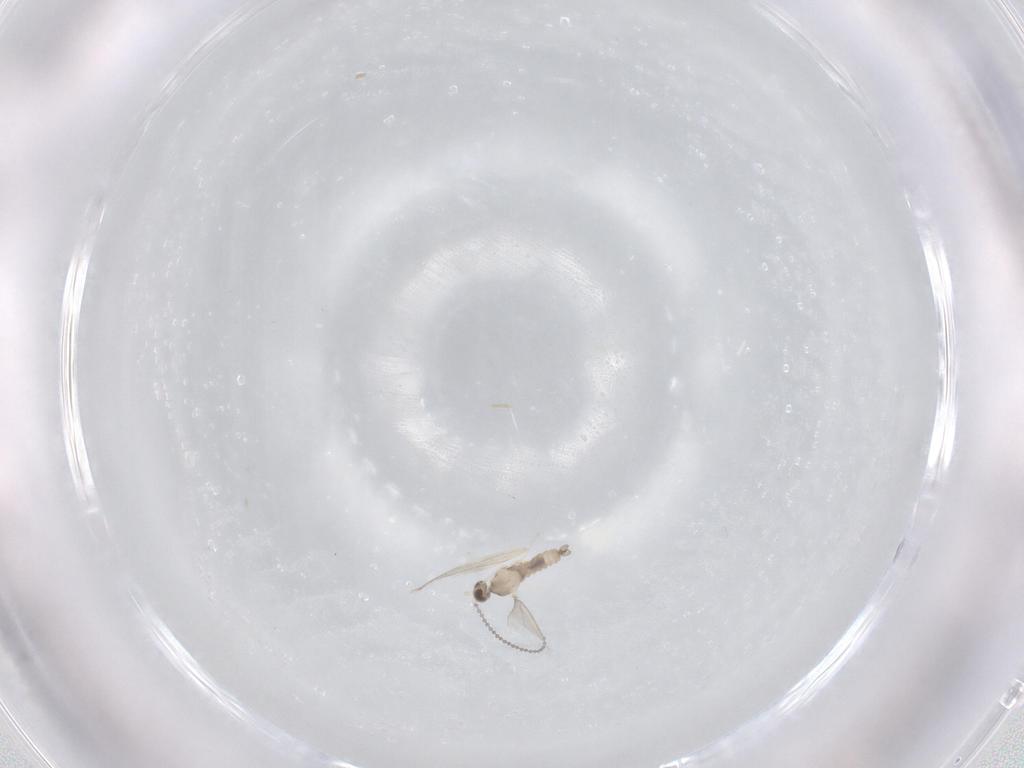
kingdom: Animalia
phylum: Arthropoda
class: Insecta
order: Diptera
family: Cecidomyiidae
